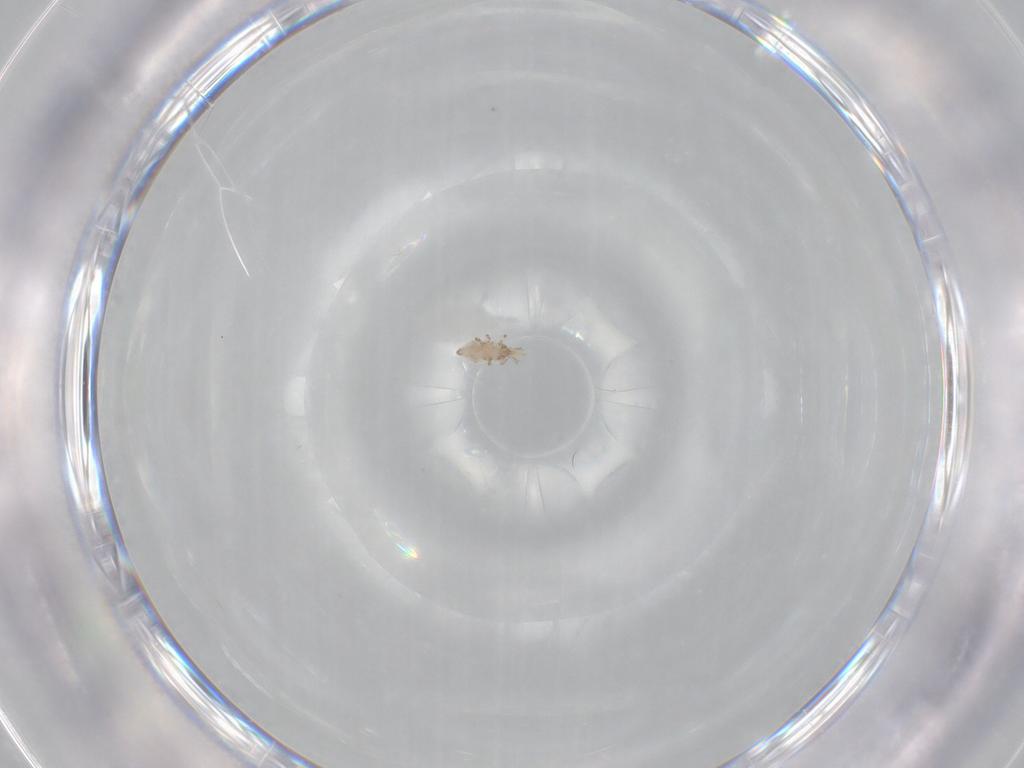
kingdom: Animalia
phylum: Arthropoda
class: Insecta
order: Neuroptera
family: Coniopterygidae
